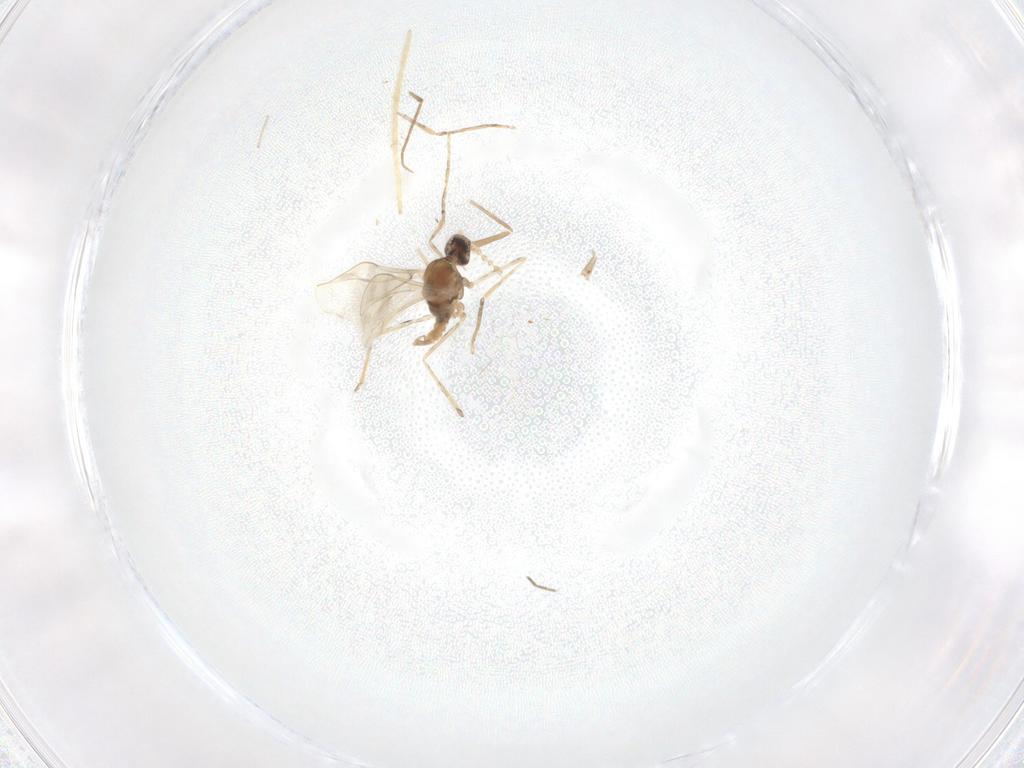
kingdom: Animalia
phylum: Arthropoda
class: Insecta
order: Diptera
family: Cecidomyiidae
